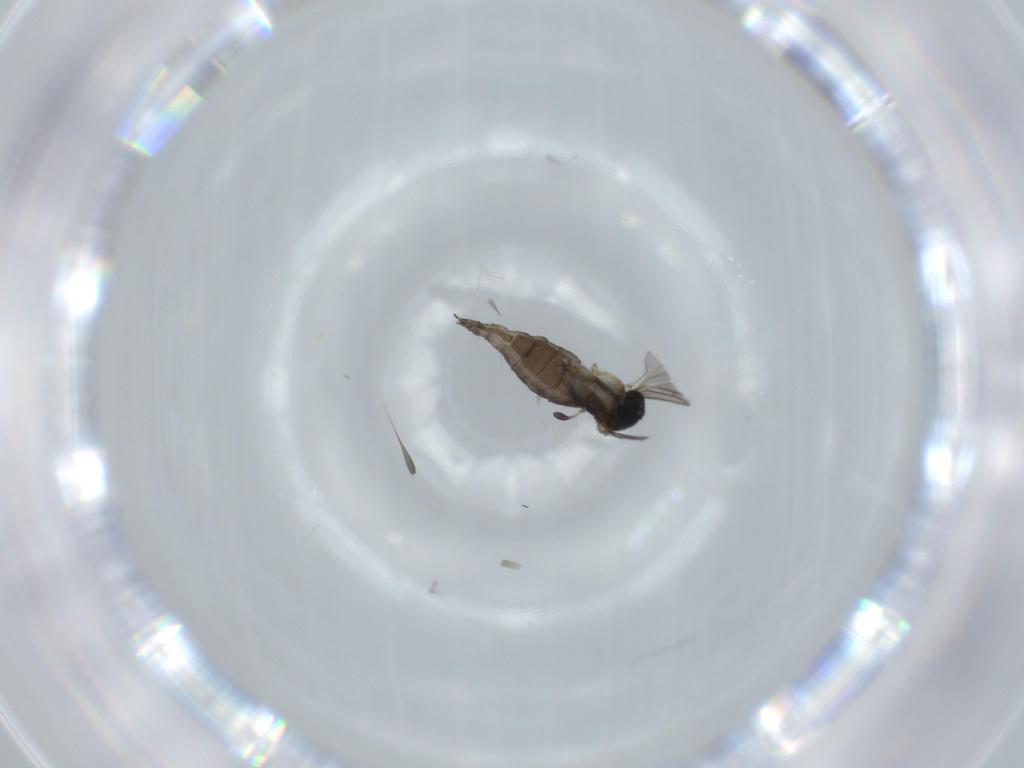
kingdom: Animalia
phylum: Arthropoda
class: Insecta
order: Diptera
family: Sciaridae
